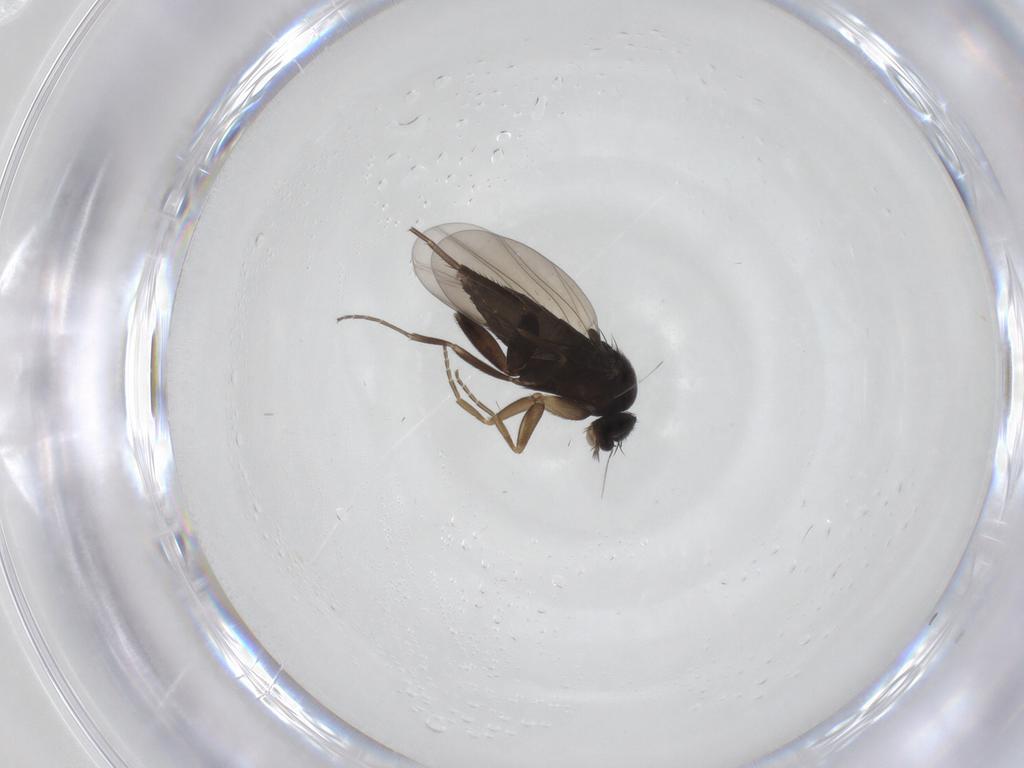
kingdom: Animalia
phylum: Arthropoda
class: Insecta
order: Diptera
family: Phoridae
